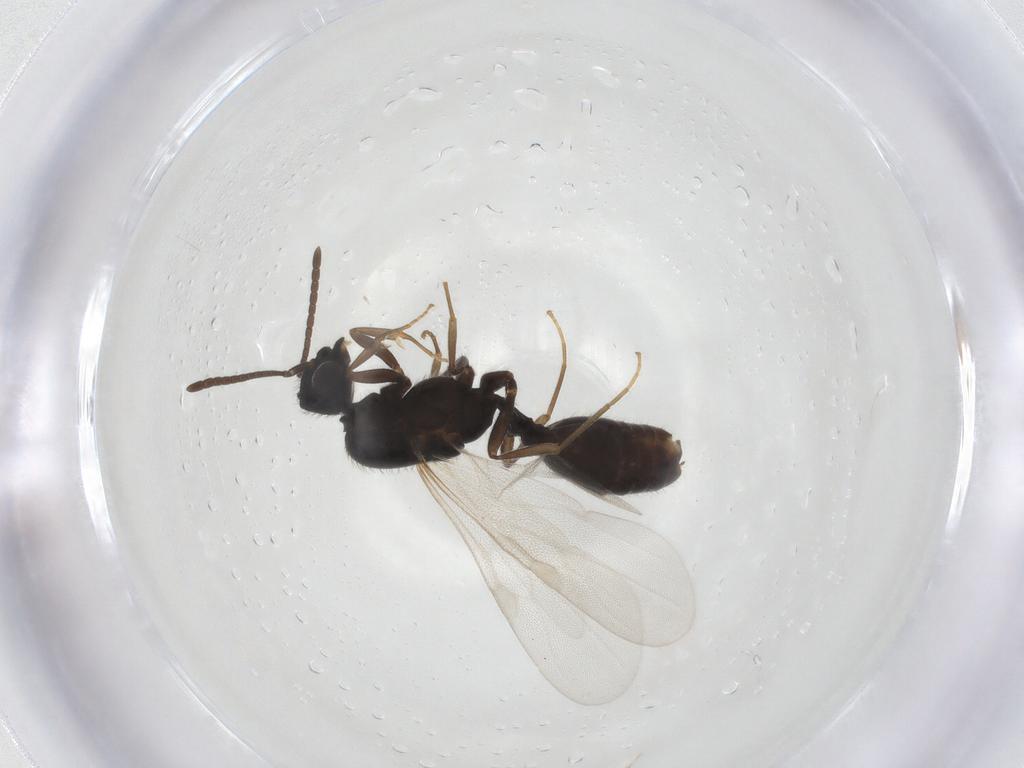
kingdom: Animalia
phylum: Arthropoda
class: Insecta
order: Hymenoptera
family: Formicidae
